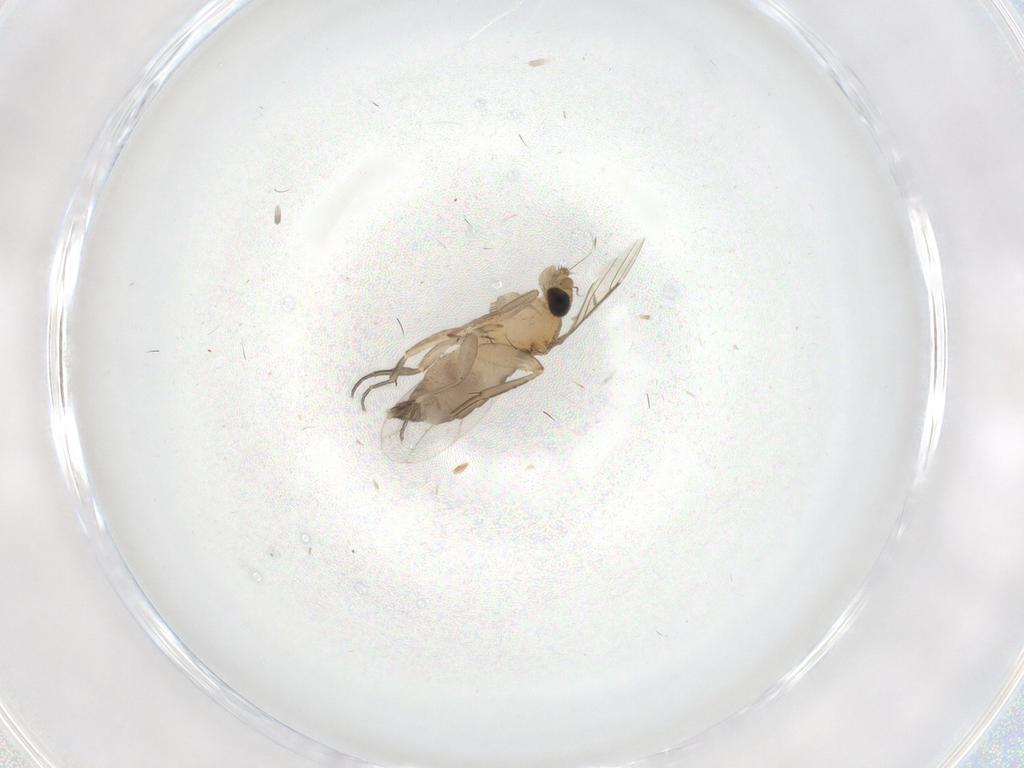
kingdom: Animalia
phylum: Arthropoda
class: Insecta
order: Diptera
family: Phoridae
